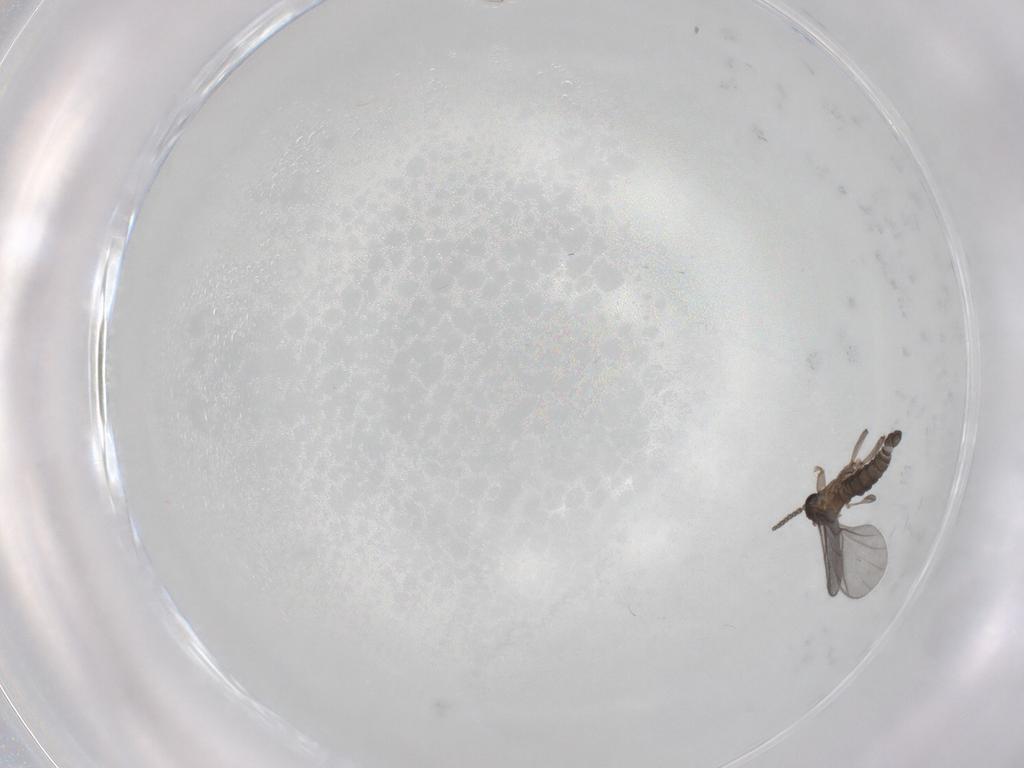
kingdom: Animalia
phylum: Arthropoda
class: Insecta
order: Diptera
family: Sciaridae
